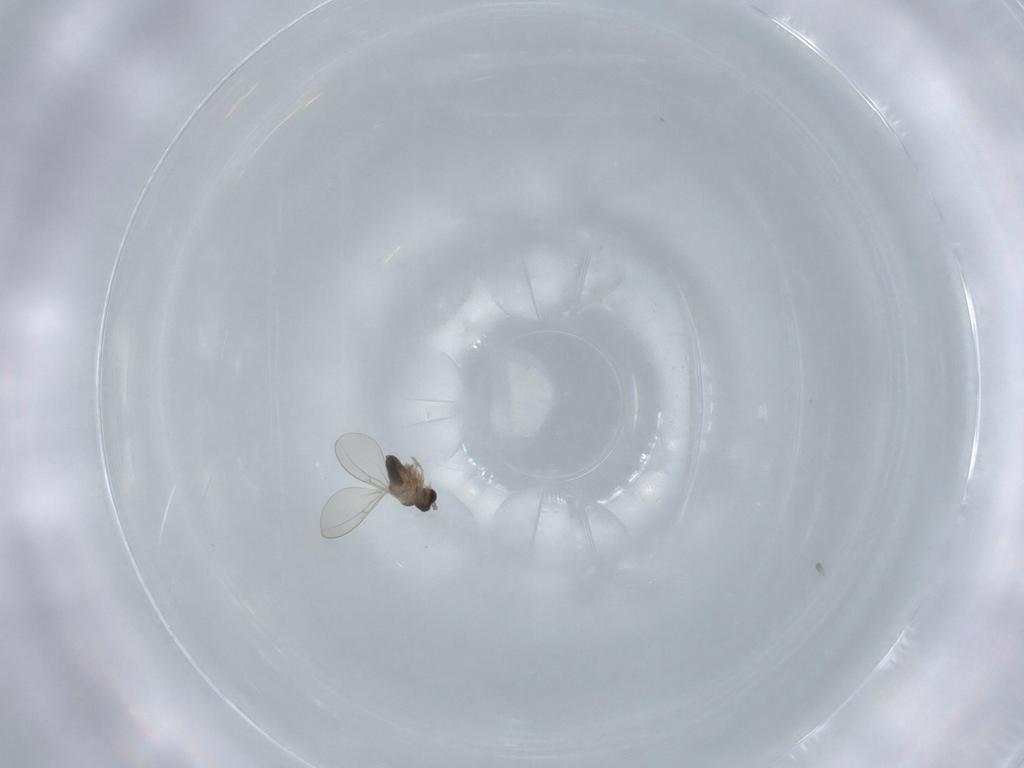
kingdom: Animalia
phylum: Arthropoda
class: Insecta
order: Diptera
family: Cecidomyiidae
